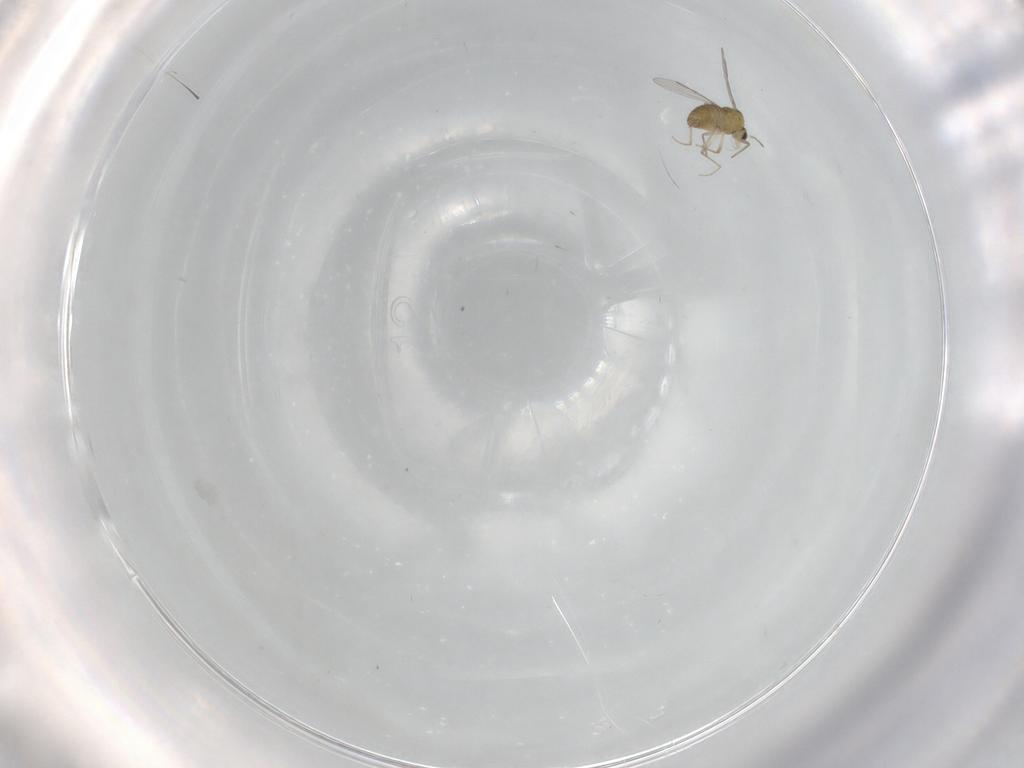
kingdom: Animalia
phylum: Arthropoda
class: Insecta
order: Diptera
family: Chironomidae
